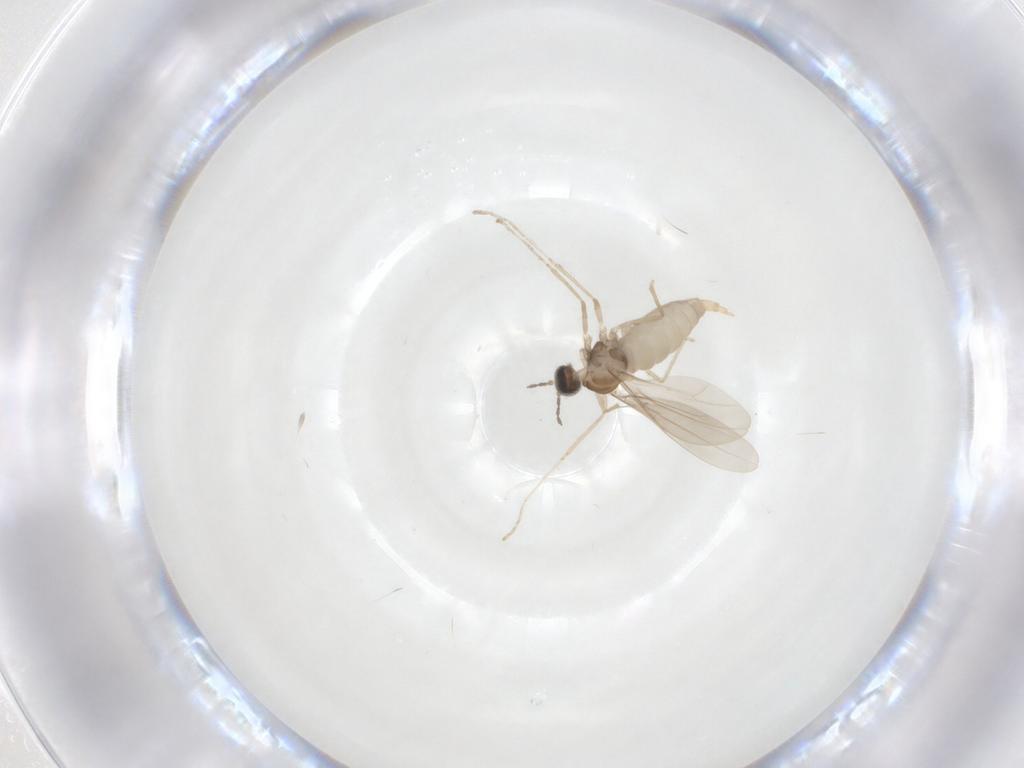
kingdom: Animalia
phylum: Arthropoda
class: Insecta
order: Diptera
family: Cecidomyiidae
